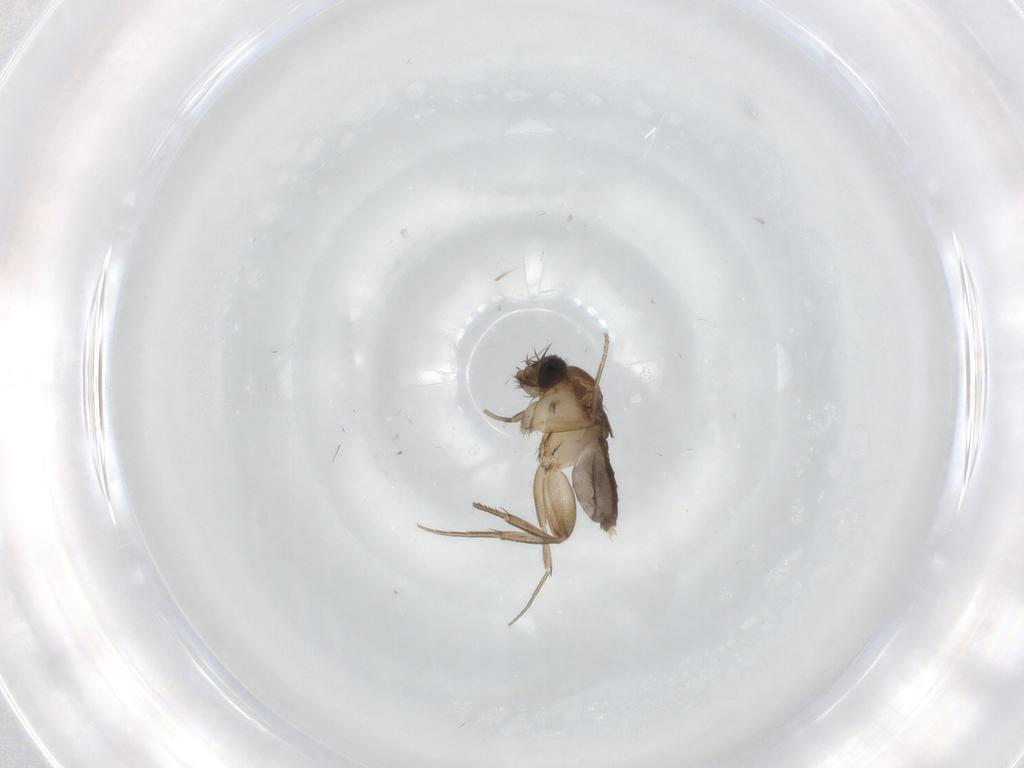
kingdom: Animalia
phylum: Arthropoda
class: Insecta
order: Diptera
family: Phoridae
